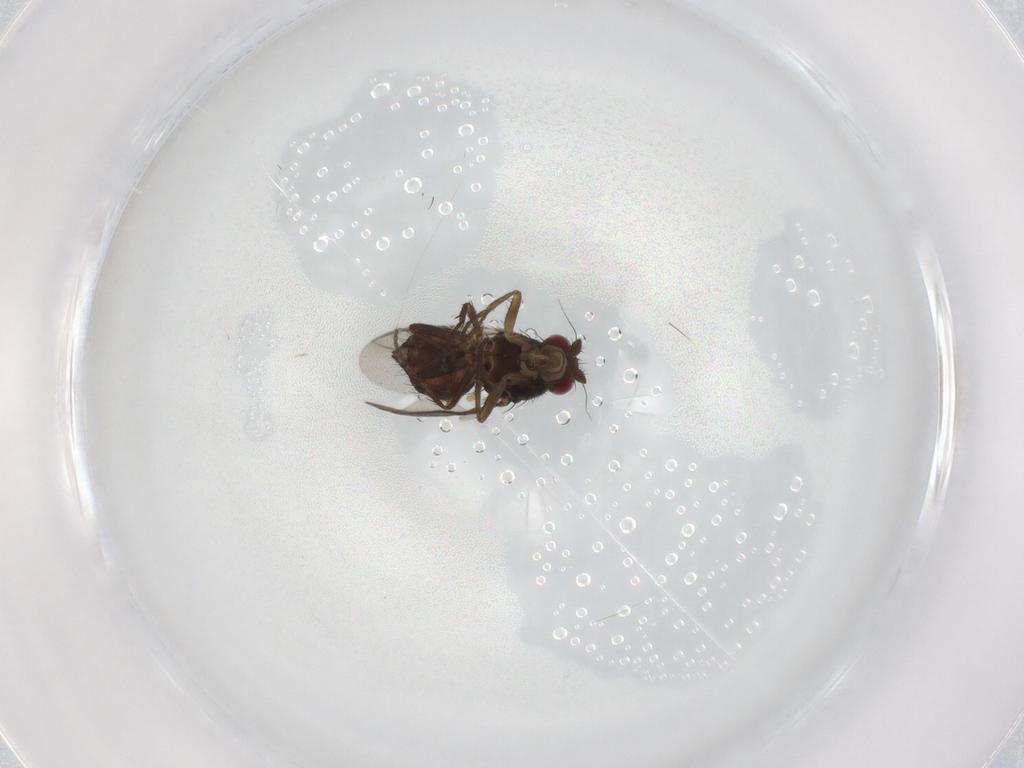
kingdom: Animalia
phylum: Arthropoda
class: Insecta
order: Diptera
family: Sphaeroceridae
